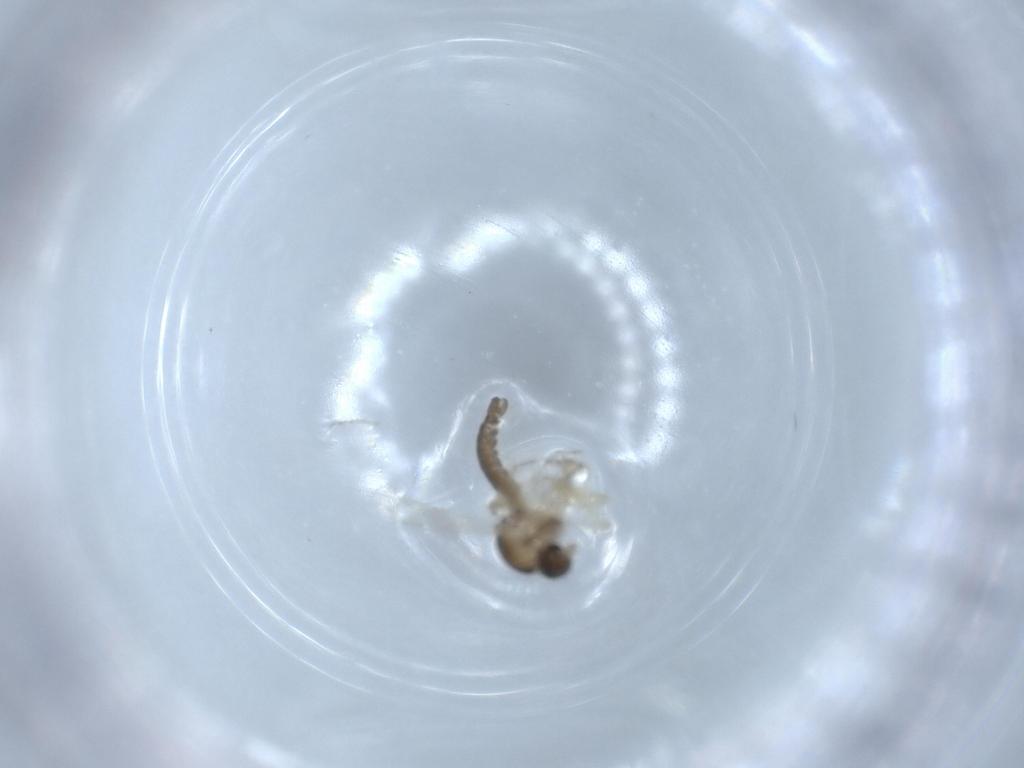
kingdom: Animalia
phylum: Arthropoda
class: Insecta
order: Diptera
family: Ceratopogonidae
